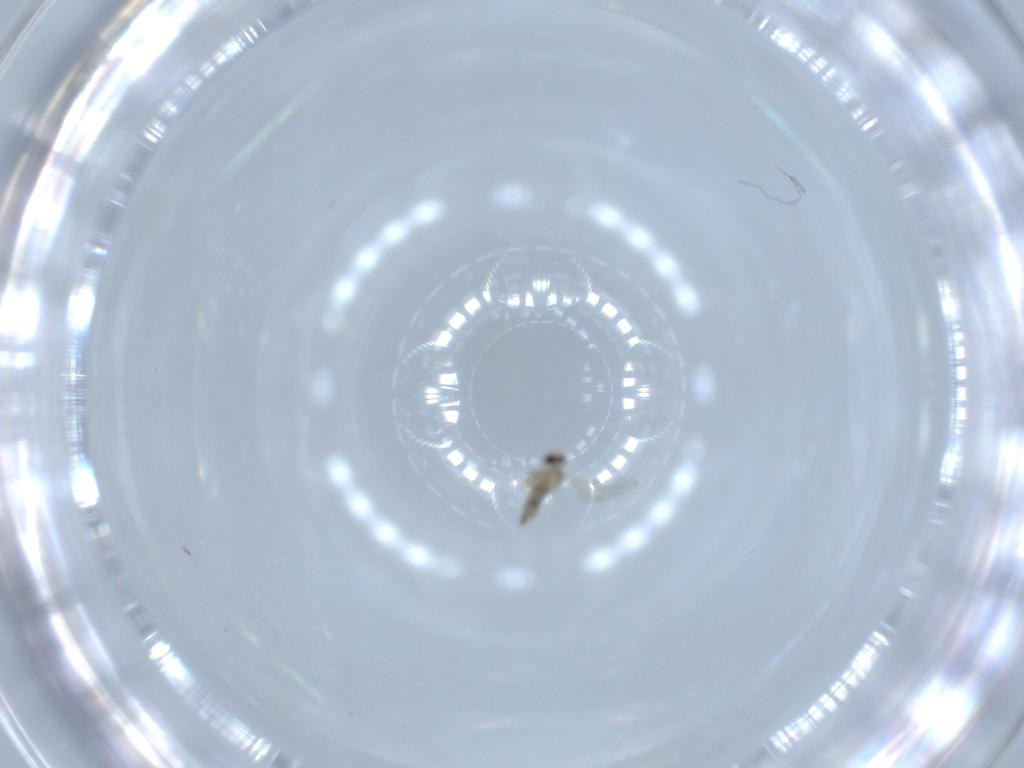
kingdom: Animalia
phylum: Arthropoda
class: Insecta
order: Diptera
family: Cecidomyiidae
